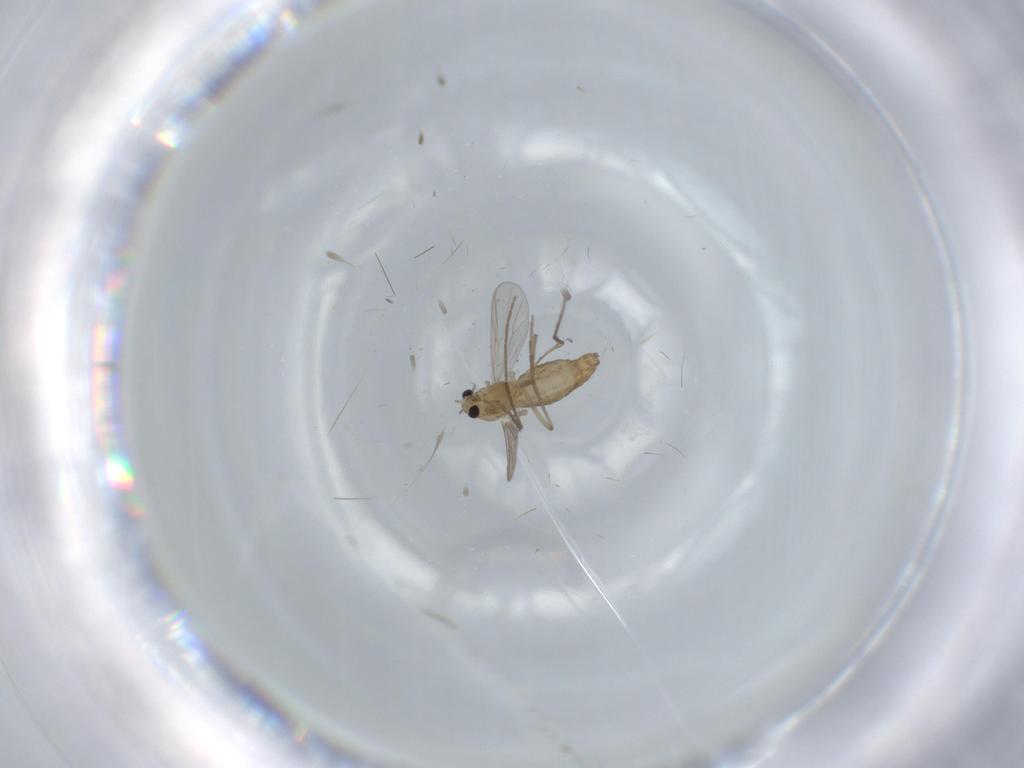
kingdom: Animalia
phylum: Arthropoda
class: Insecta
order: Diptera
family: Chironomidae
